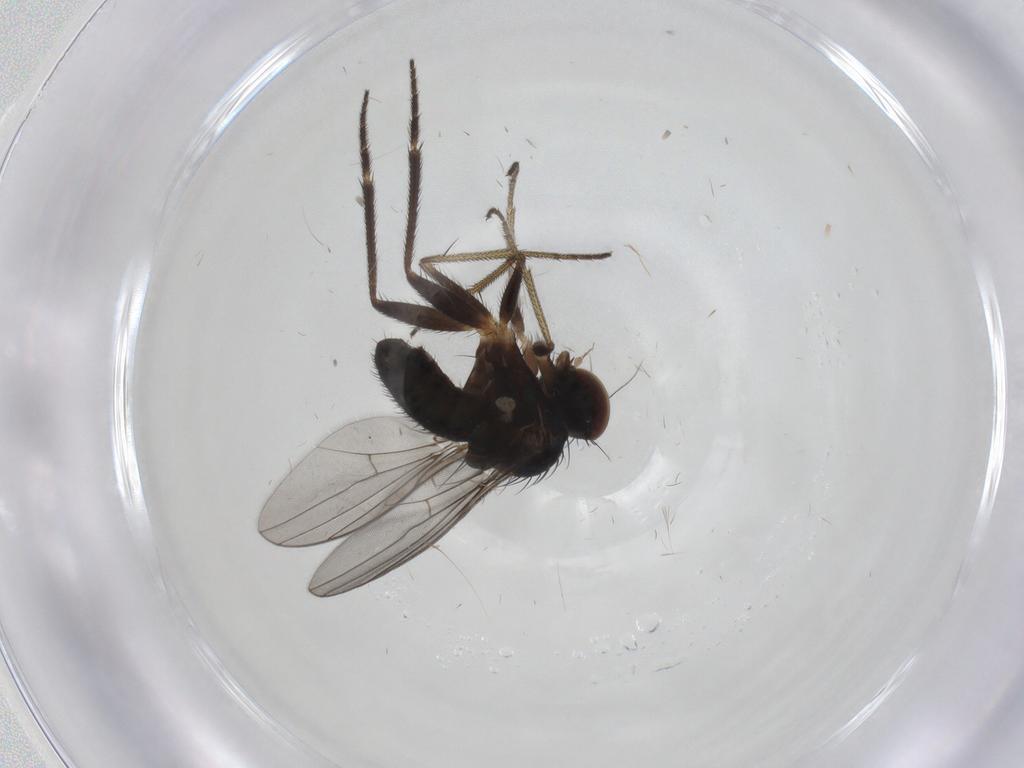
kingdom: Animalia
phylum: Arthropoda
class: Insecta
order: Diptera
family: Dolichopodidae
